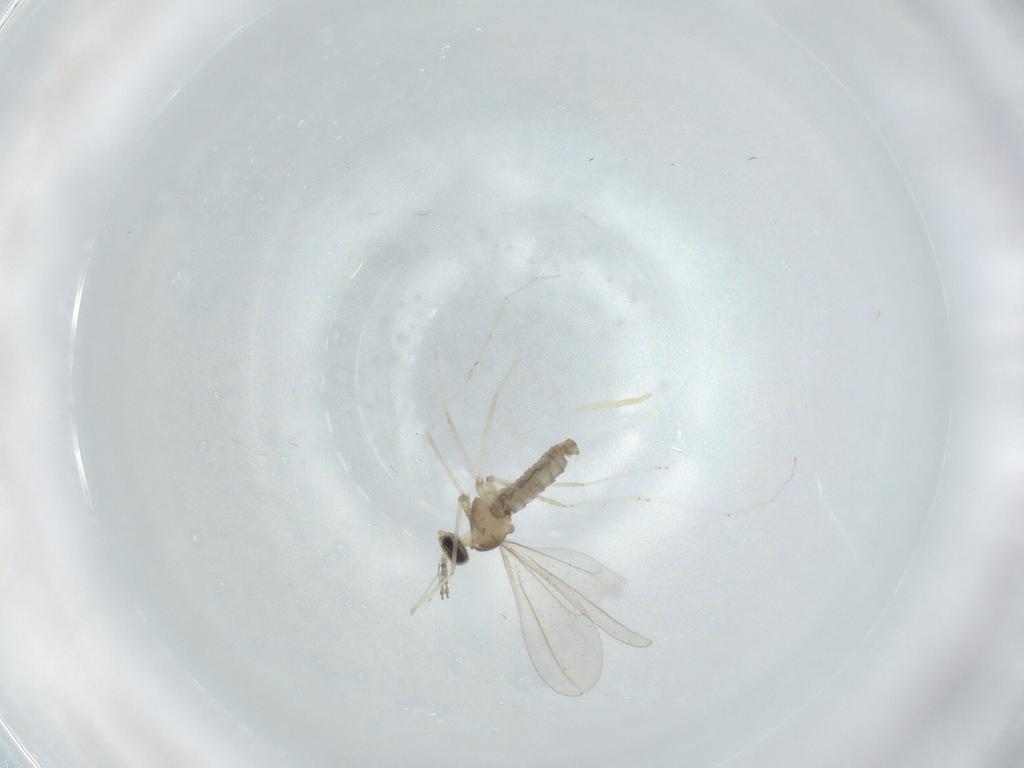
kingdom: Animalia
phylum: Arthropoda
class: Insecta
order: Diptera
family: Cecidomyiidae
